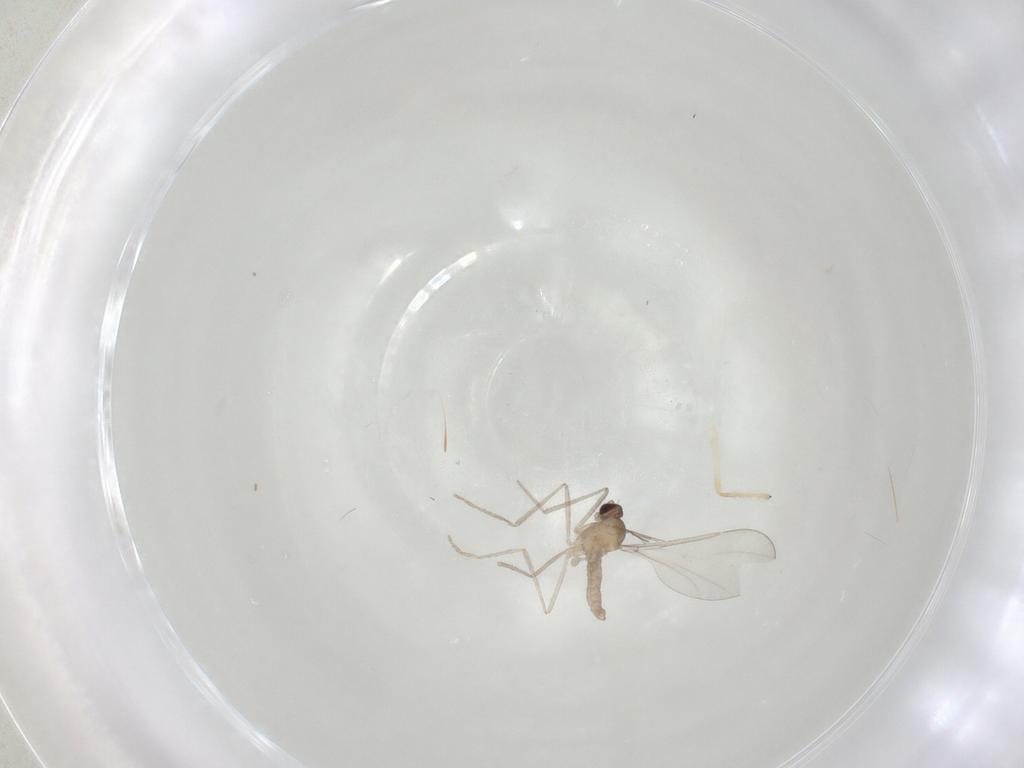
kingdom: Animalia
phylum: Arthropoda
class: Insecta
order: Diptera
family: Cecidomyiidae
